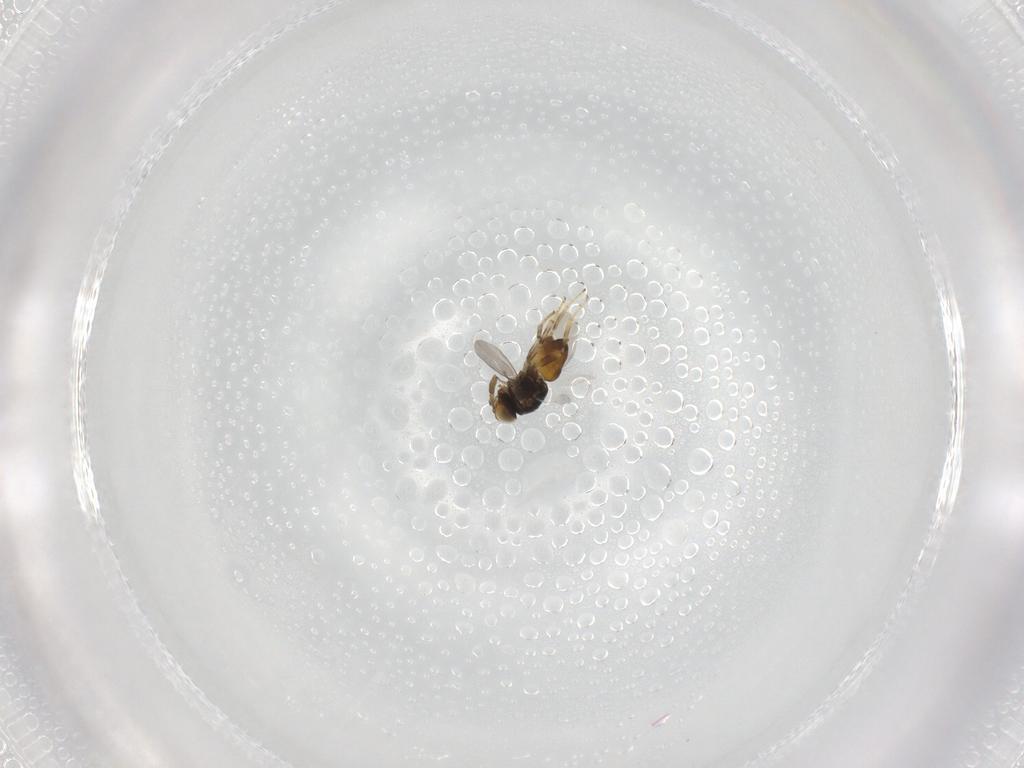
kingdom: Animalia
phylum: Arthropoda
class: Insecta
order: Hymenoptera
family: Encyrtidae
